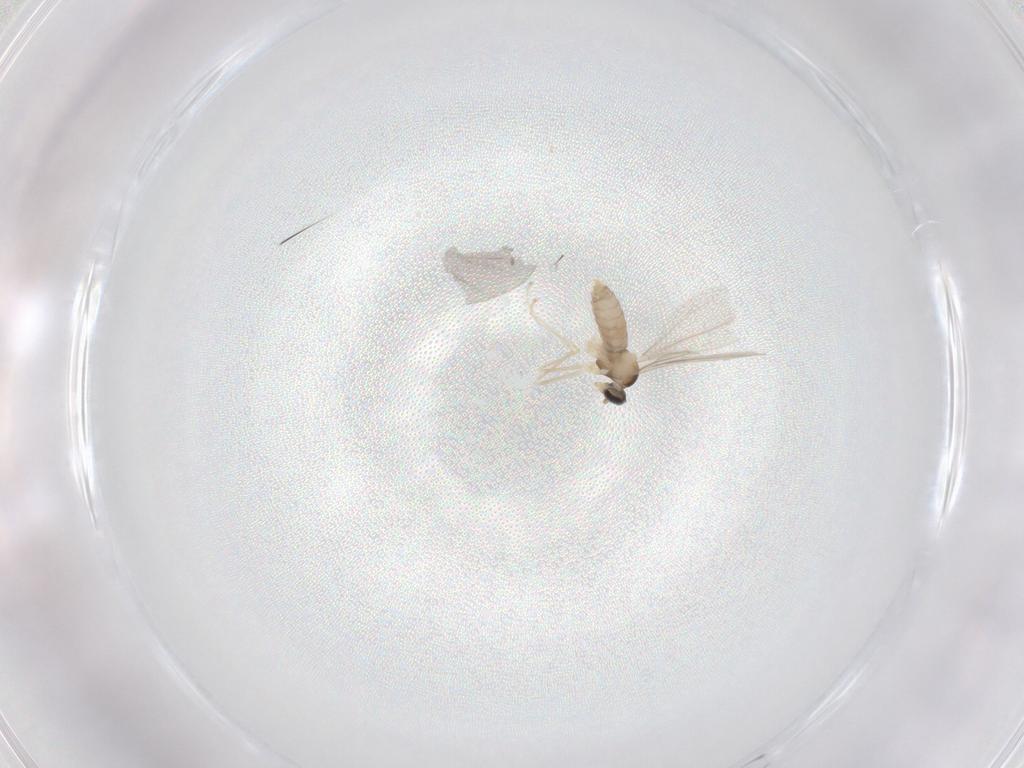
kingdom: Animalia
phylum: Arthropoda
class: Insecta
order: Diptera
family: Cecidomyiidae
